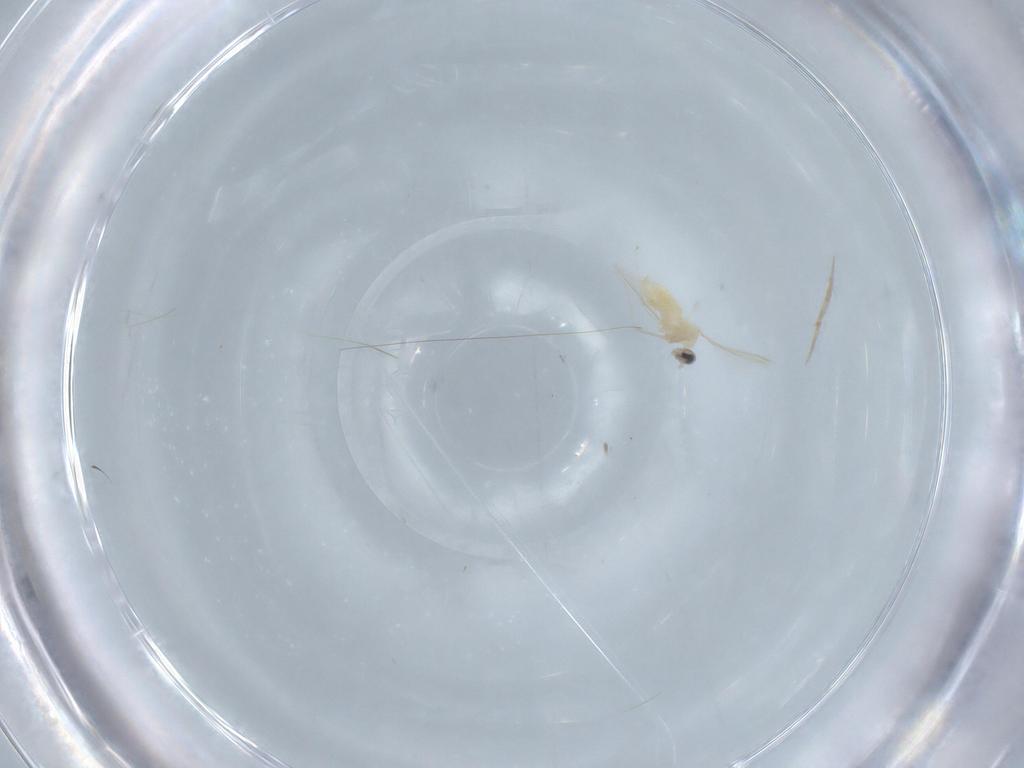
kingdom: Animalia
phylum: Arthropoda
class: Insecta
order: Diptera
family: Cecidomyiidae
